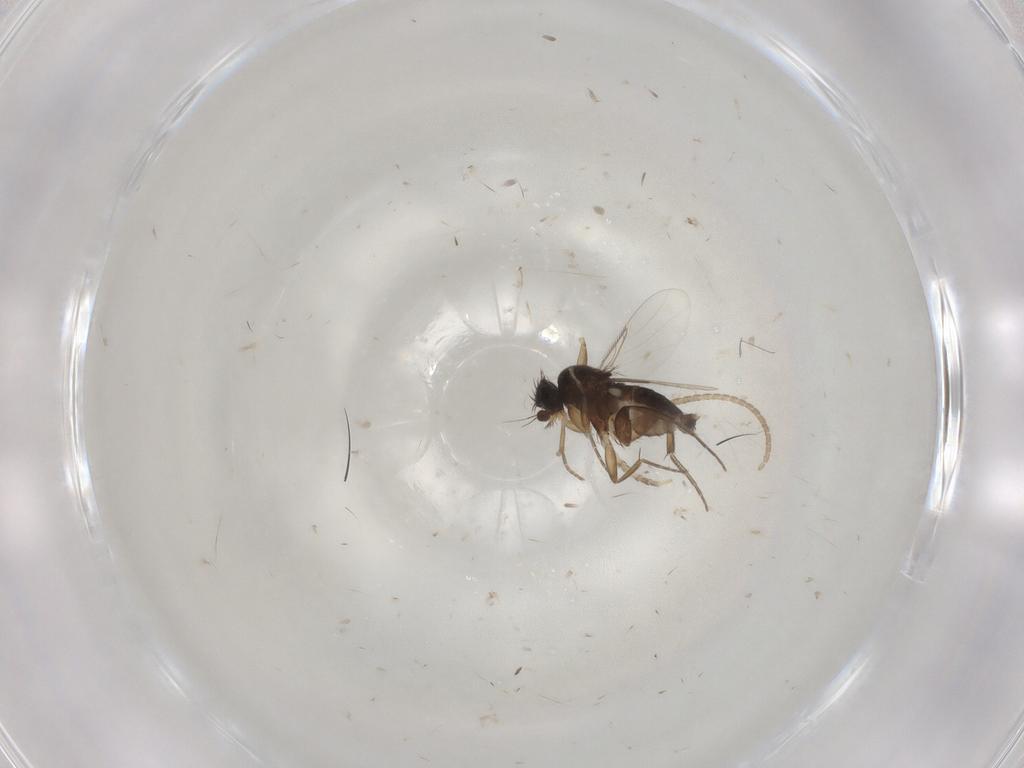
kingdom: Animalia
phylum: Arthropoda
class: Insecta
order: Diptera
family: Phoridae
